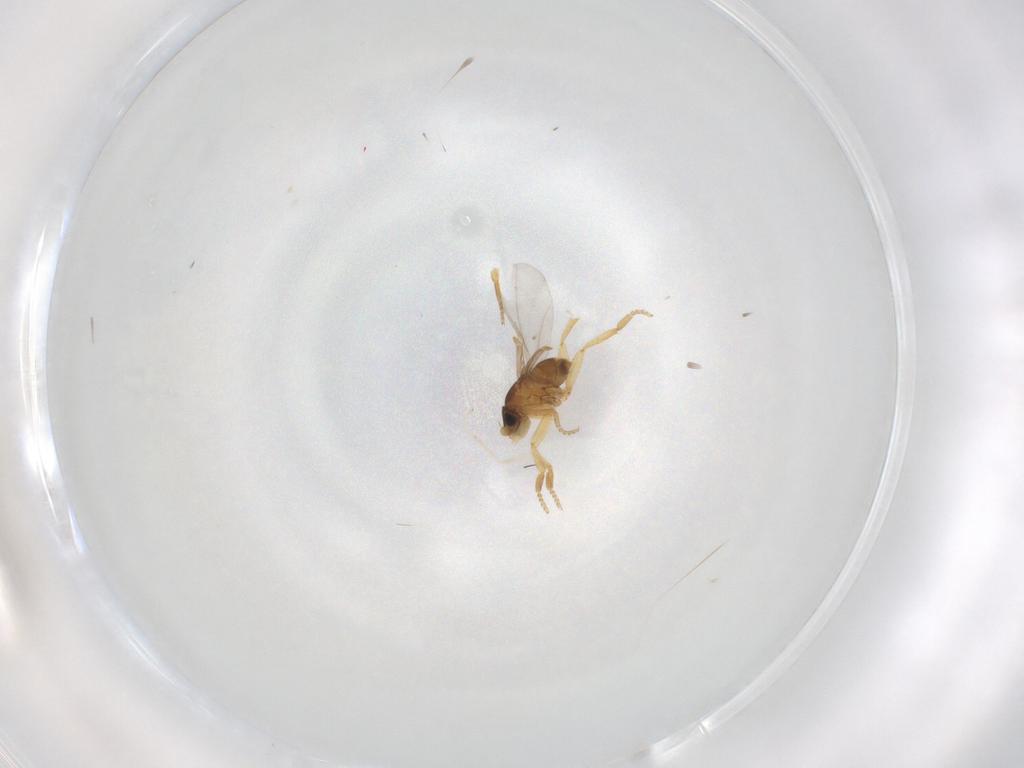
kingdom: Animalia
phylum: Arthropoda
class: Insecta
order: Diptera
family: Phoridae
